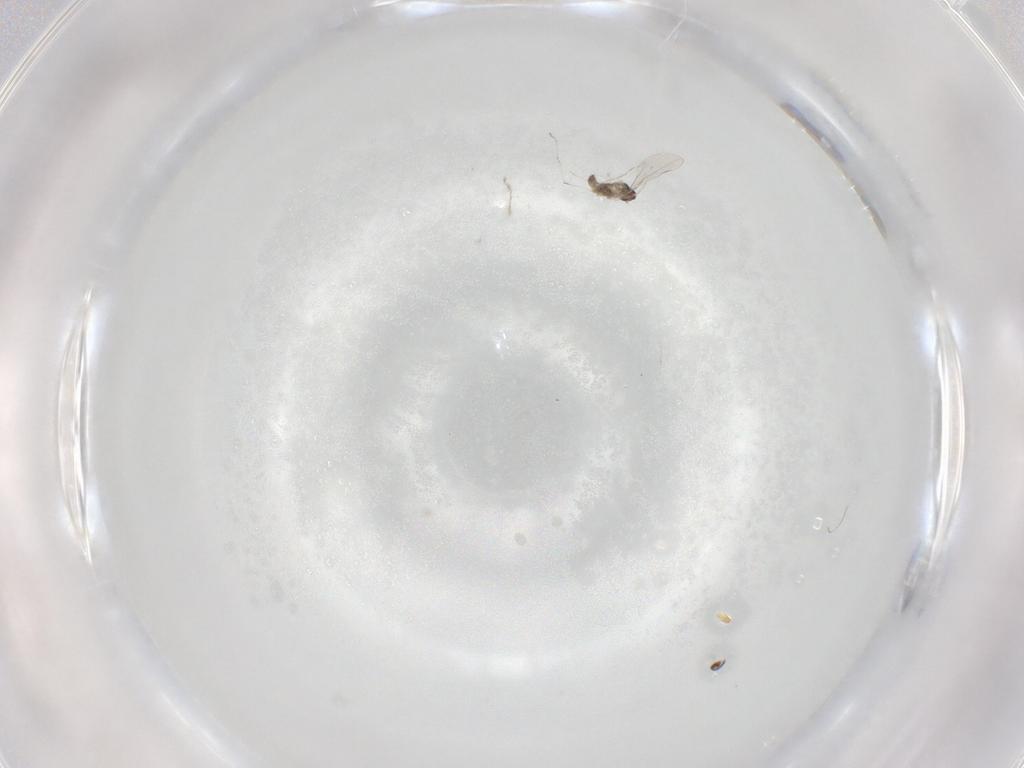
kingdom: Animalia
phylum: Arthropoda
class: Insecta
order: Diptera
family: Cecidomyiidae
